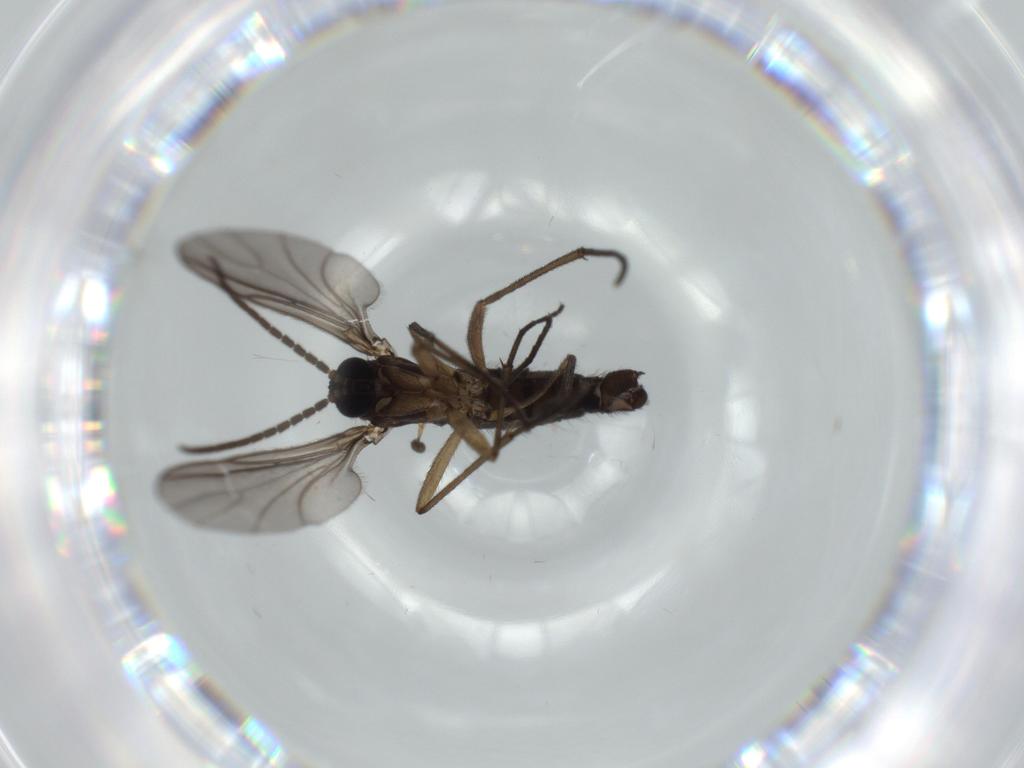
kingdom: Animalia
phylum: Arthropoda
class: Insecta
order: Diptera
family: Sciaridae
